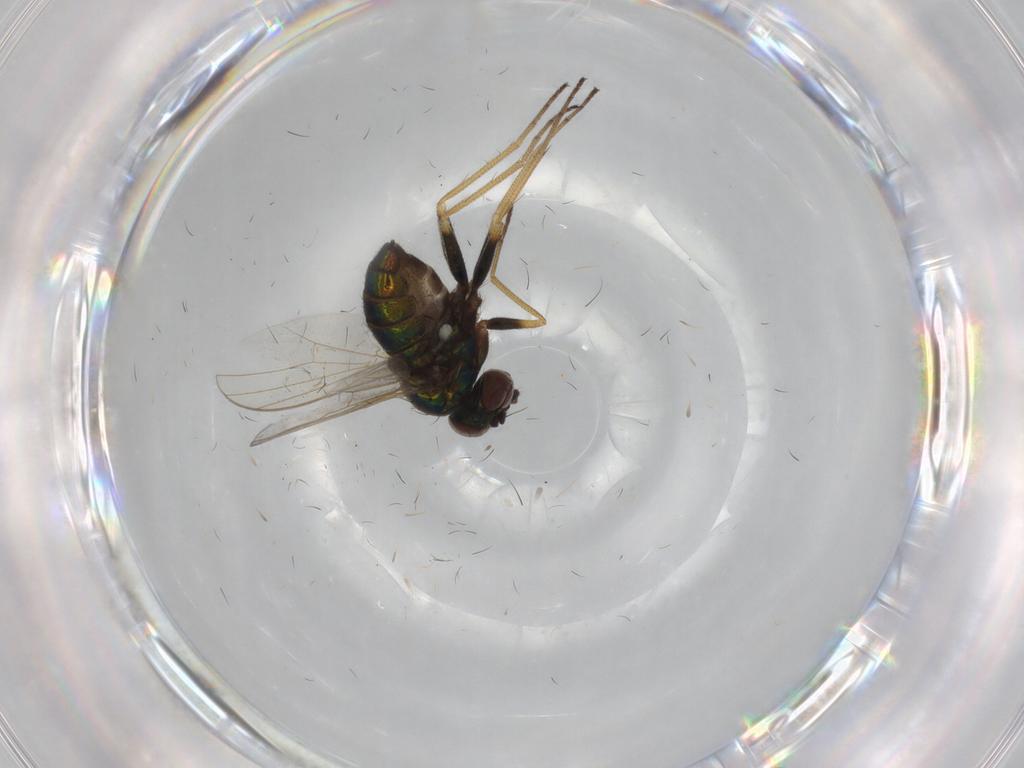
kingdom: Animalia
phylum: Arthropoda
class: Insecta
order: Diptera
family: Dolichopodidae
